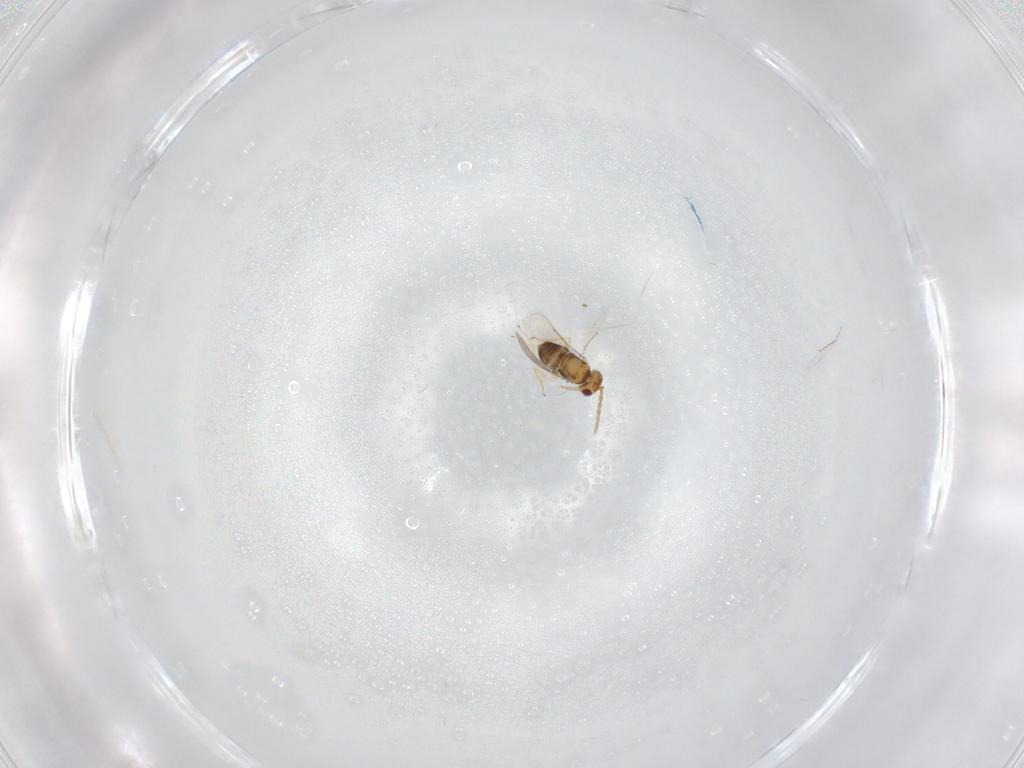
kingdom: Animalia
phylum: Arthropoda
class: Insecta
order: Hymenoptera
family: Aphelinidae
